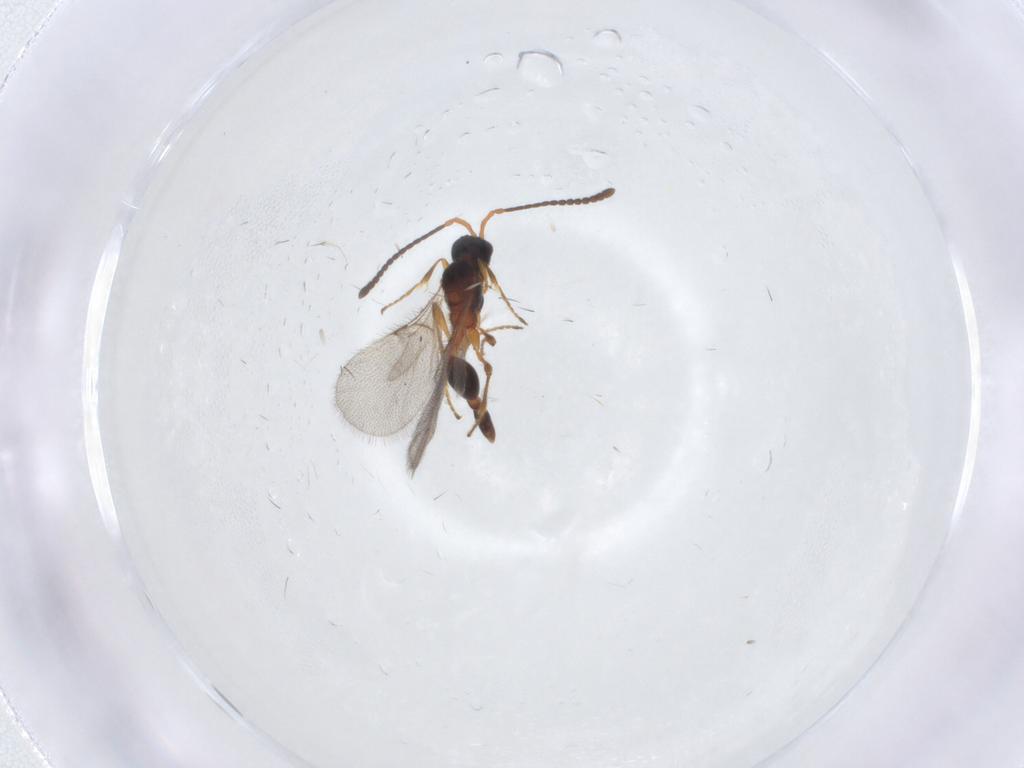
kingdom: Animalia
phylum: Arthropoda
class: Insecta
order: Hymenoptera
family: Diapriidae
